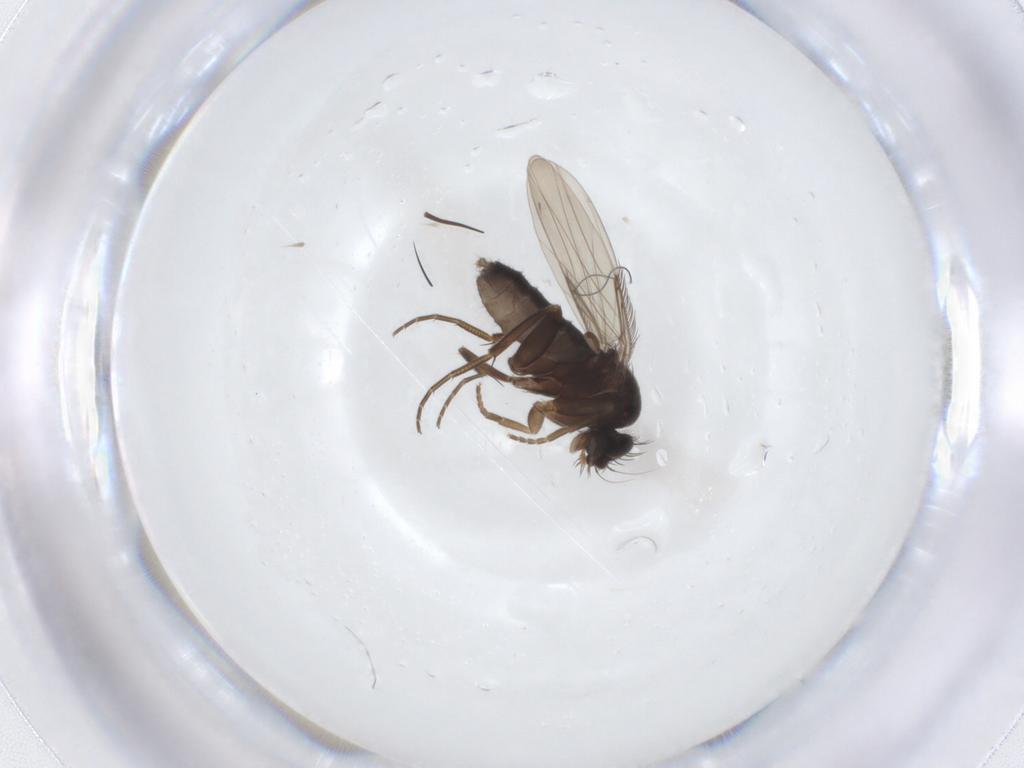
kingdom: Animalia
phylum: Arthropoda
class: Insecta
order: Diptera
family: Phoridae
